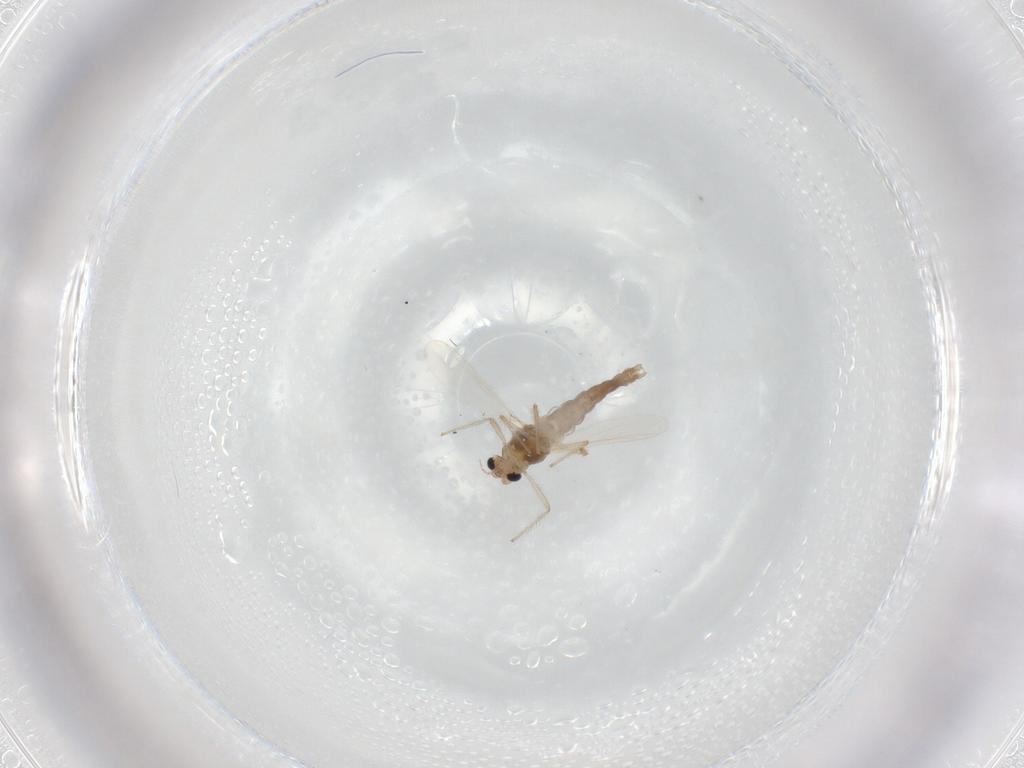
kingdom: Animalia
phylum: Arthropoda
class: Insecta
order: Diptera
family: Chironomidae
